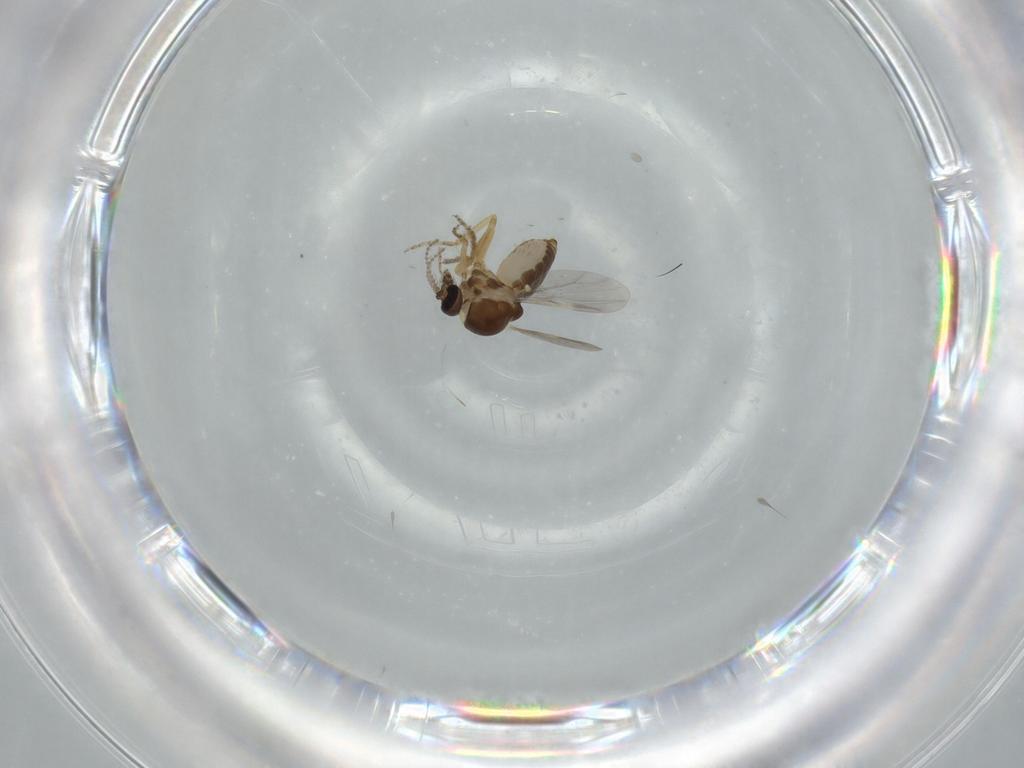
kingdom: Animalia
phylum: Arthropoda
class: Insecta
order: Diptera
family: Ceratopogonidae
